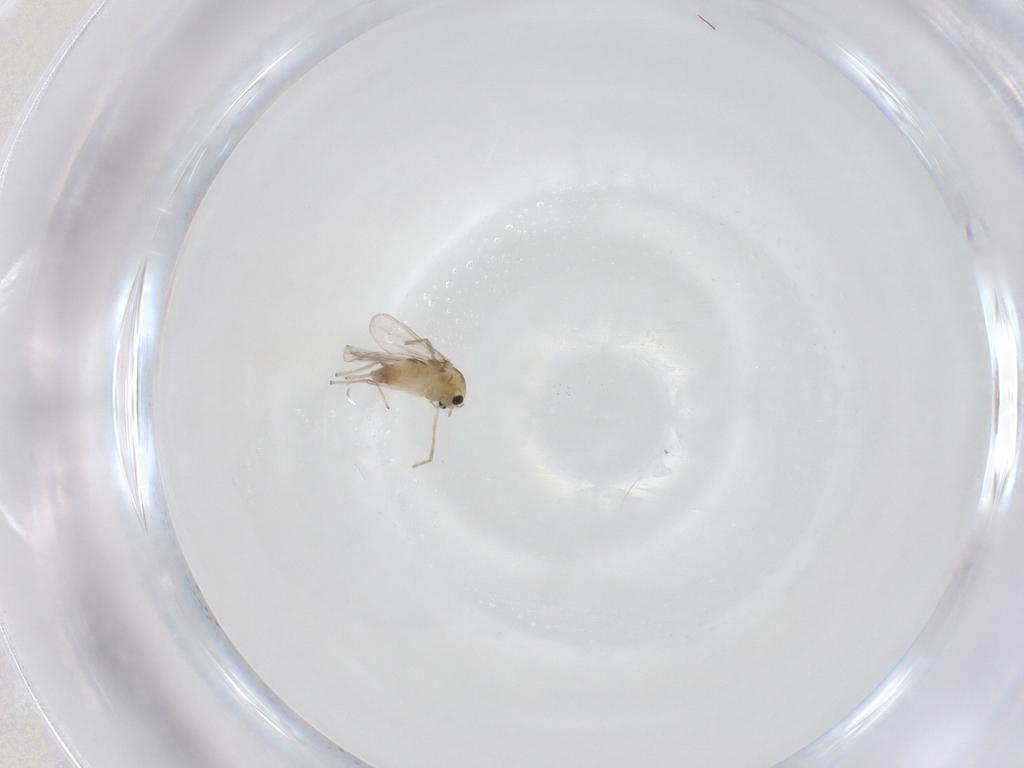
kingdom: Animalia
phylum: Arthropoda
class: Insecta
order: Diptera
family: Chironomidae
